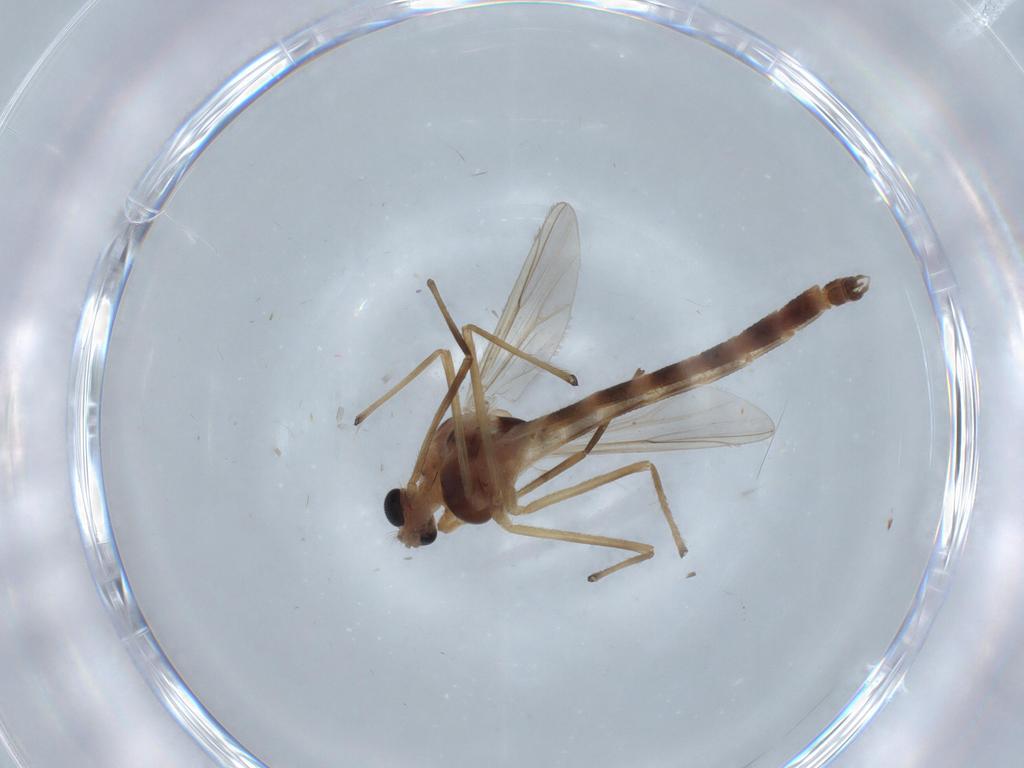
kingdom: Animalia
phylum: Arthropoda
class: Insecta
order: Diptera
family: Chironomidae
